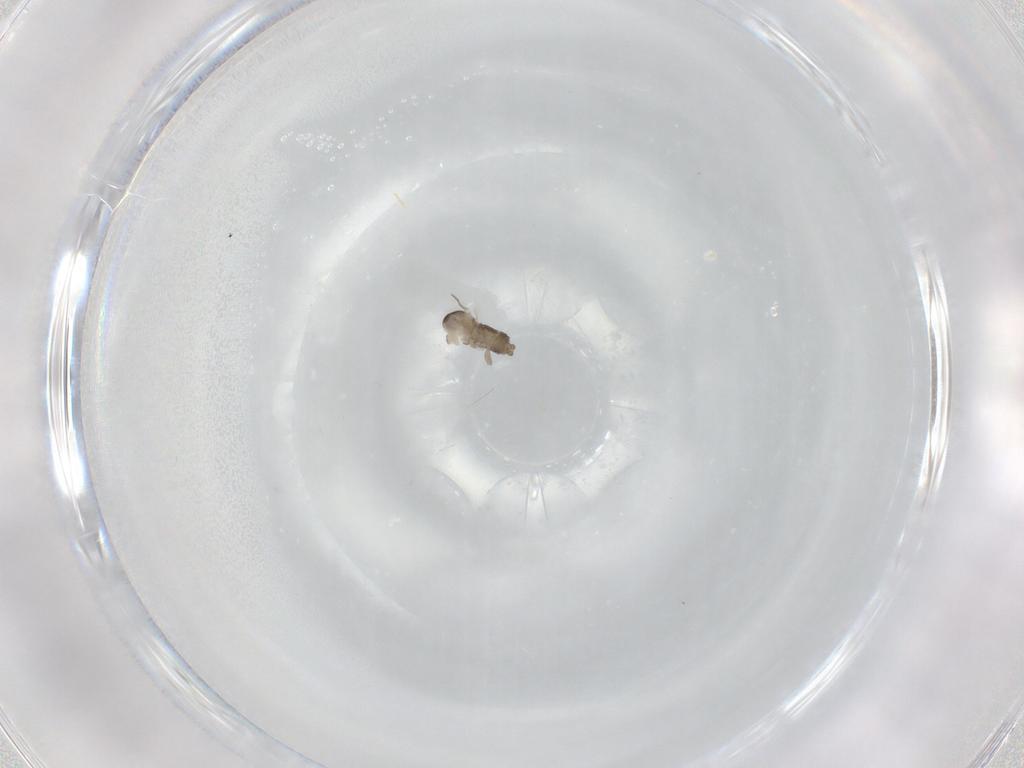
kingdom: Animalia
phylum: Arthropoda
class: Insecta
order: Diptera
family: Cecidomyiidae
